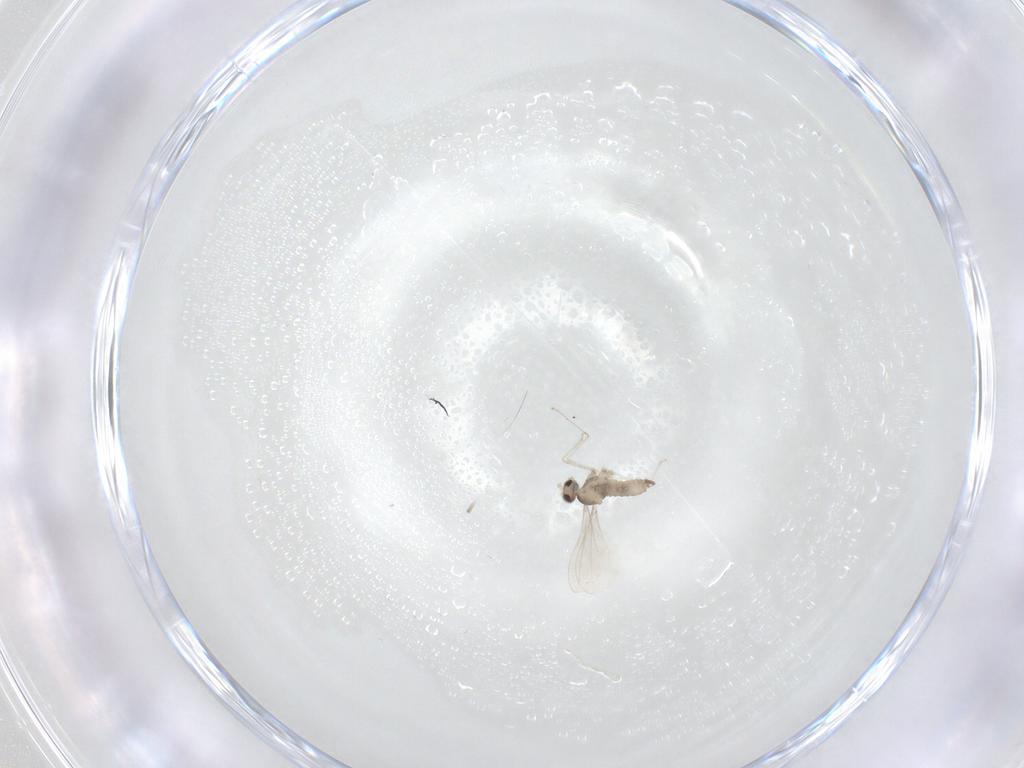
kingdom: Animalia
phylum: Arthropoda
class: Insecta
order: Diptera
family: Cecidomyiidae
